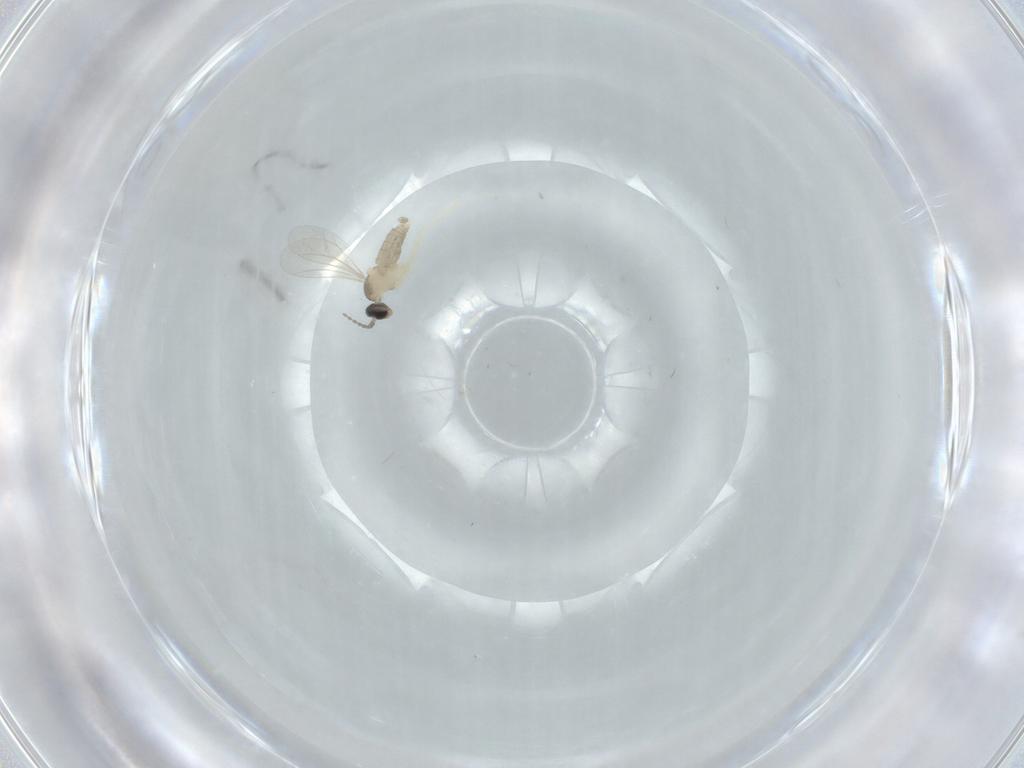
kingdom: Animalia
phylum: Arthropoda
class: Insecta
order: Diptera
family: Cecidomyiidae
